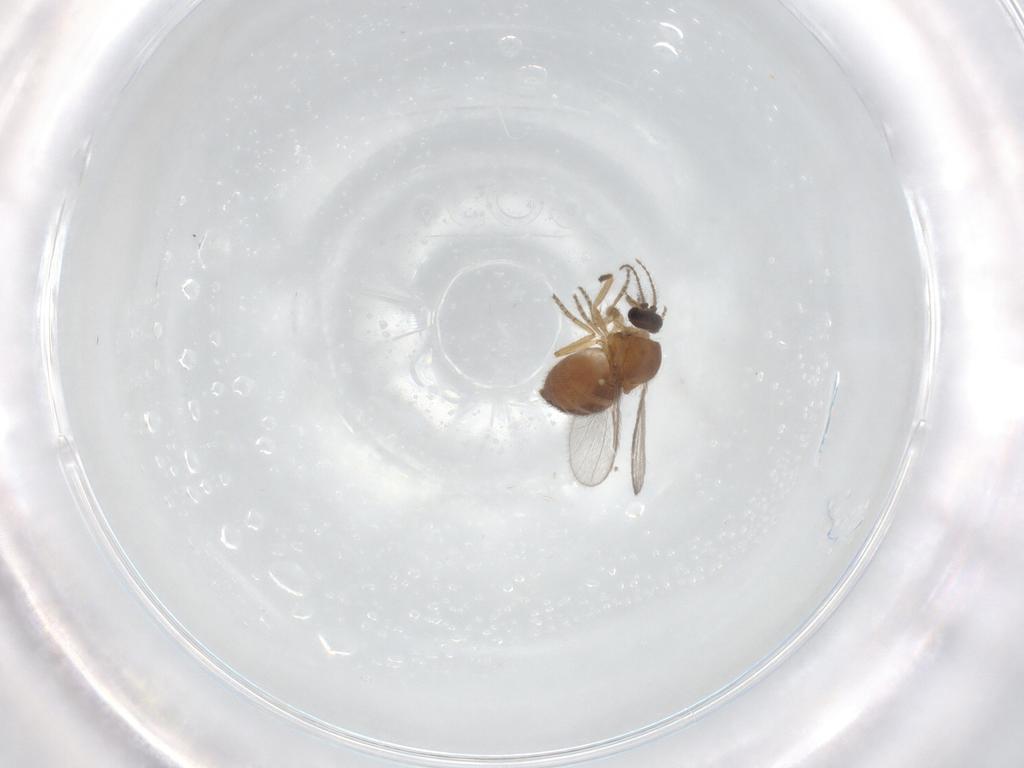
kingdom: Animalia
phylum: Arthropoda
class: Insecta
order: Diptera
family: Ceratopogonidae
